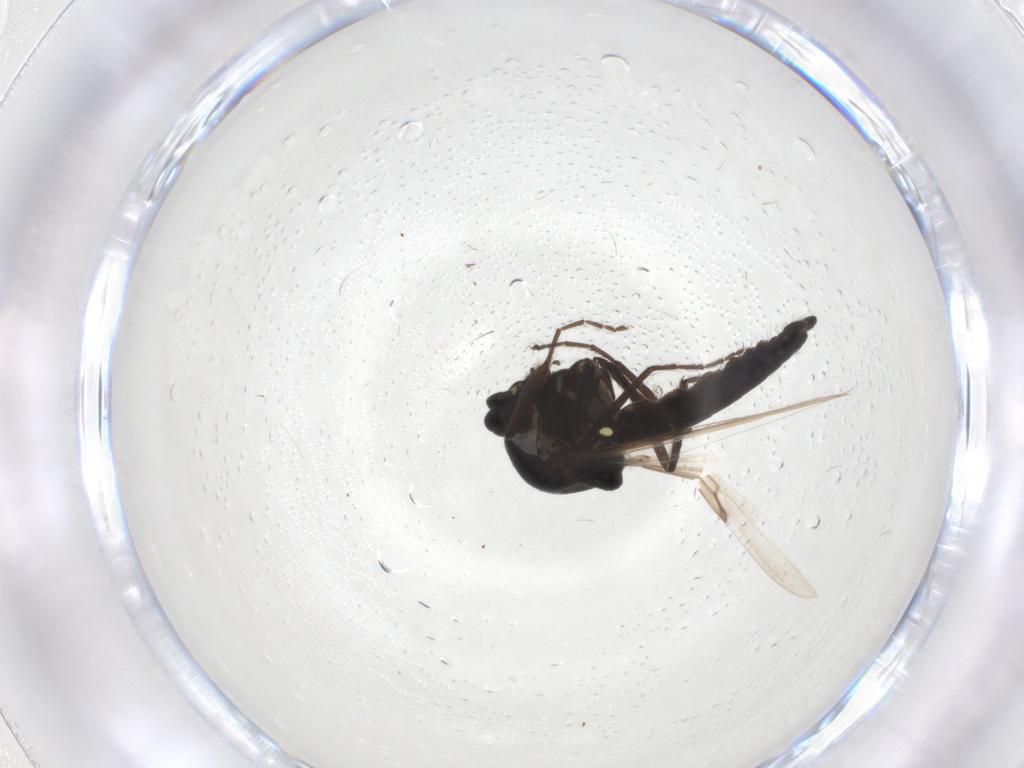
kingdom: Animalia
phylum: Arthropoda
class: Insecta
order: Diptera
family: Ceratopogonidae
